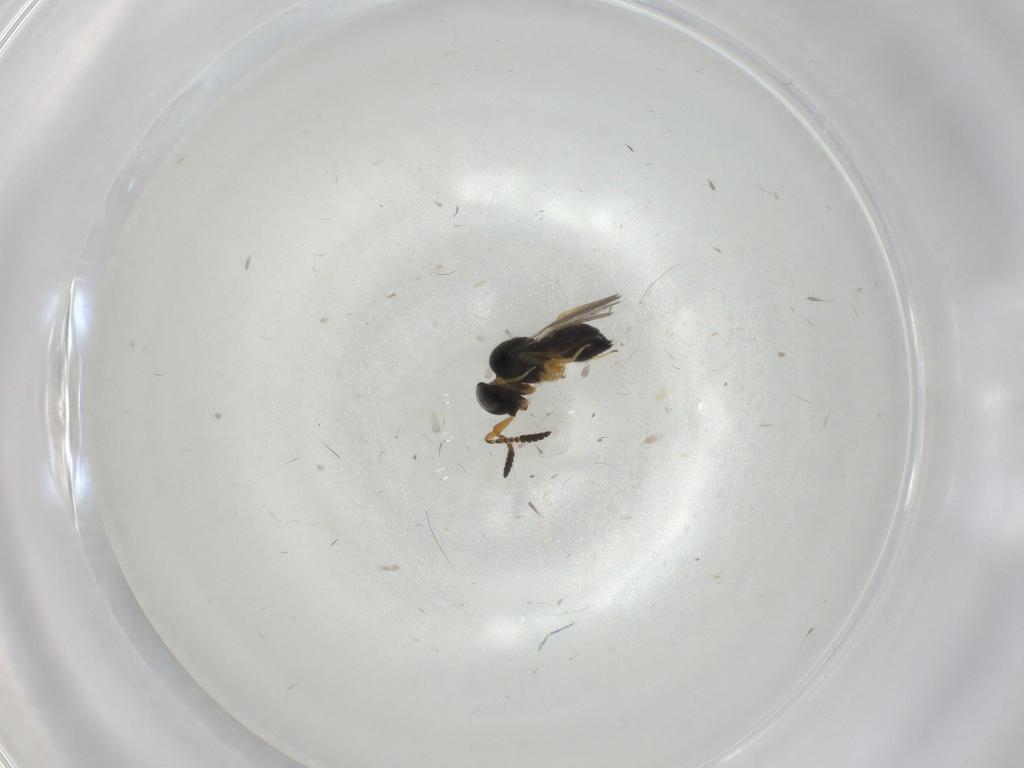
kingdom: Animalia
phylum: Arthropoda
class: Insecta
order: Hymenoptera
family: Scelionidae
